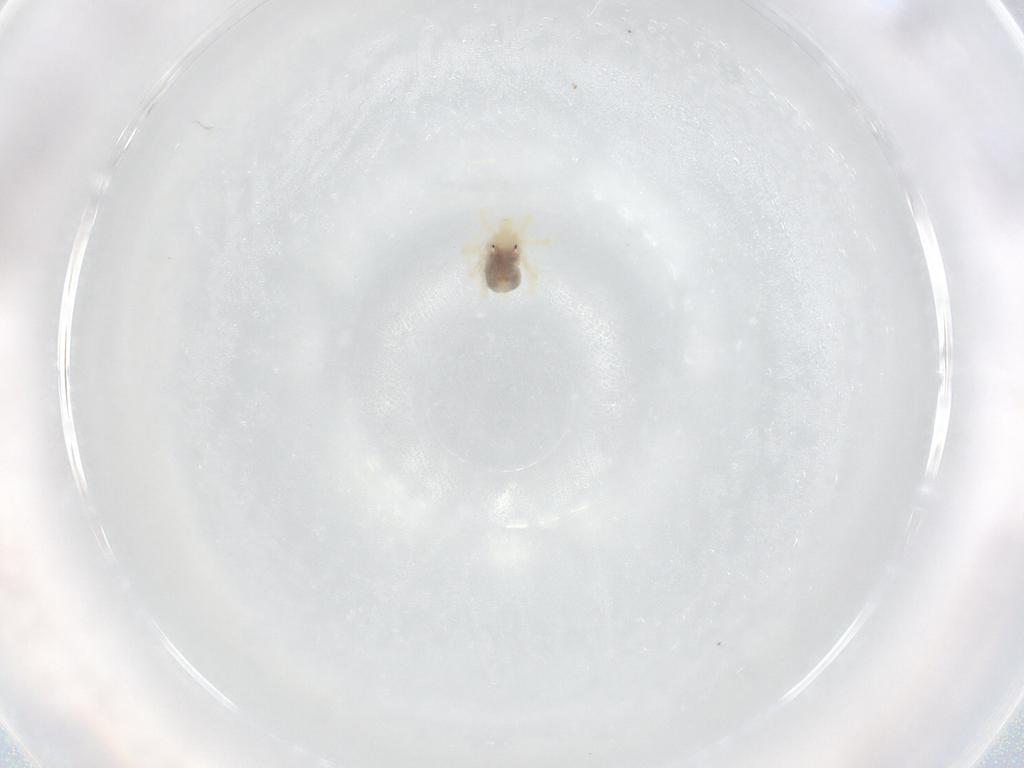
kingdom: Animalia
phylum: Arthropoda
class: Arachnida
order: Trombidiformes
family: Anystidae
